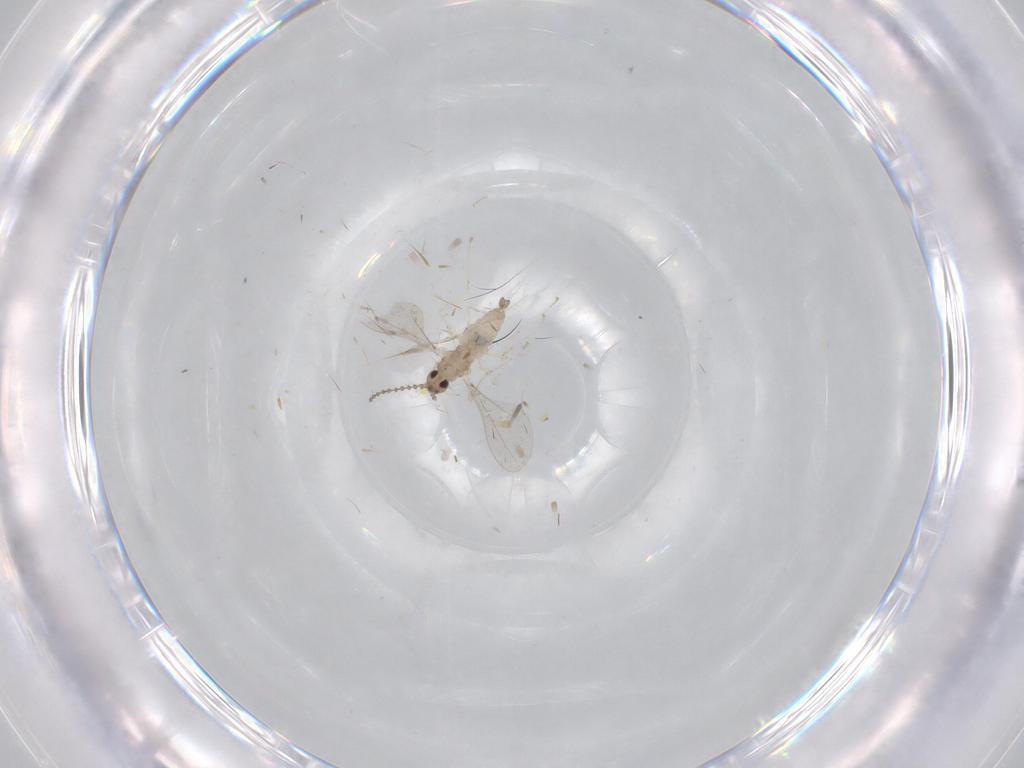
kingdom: Animalia
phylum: Arthropoda
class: Insecta
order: Diptera
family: Cecidomyiidae
